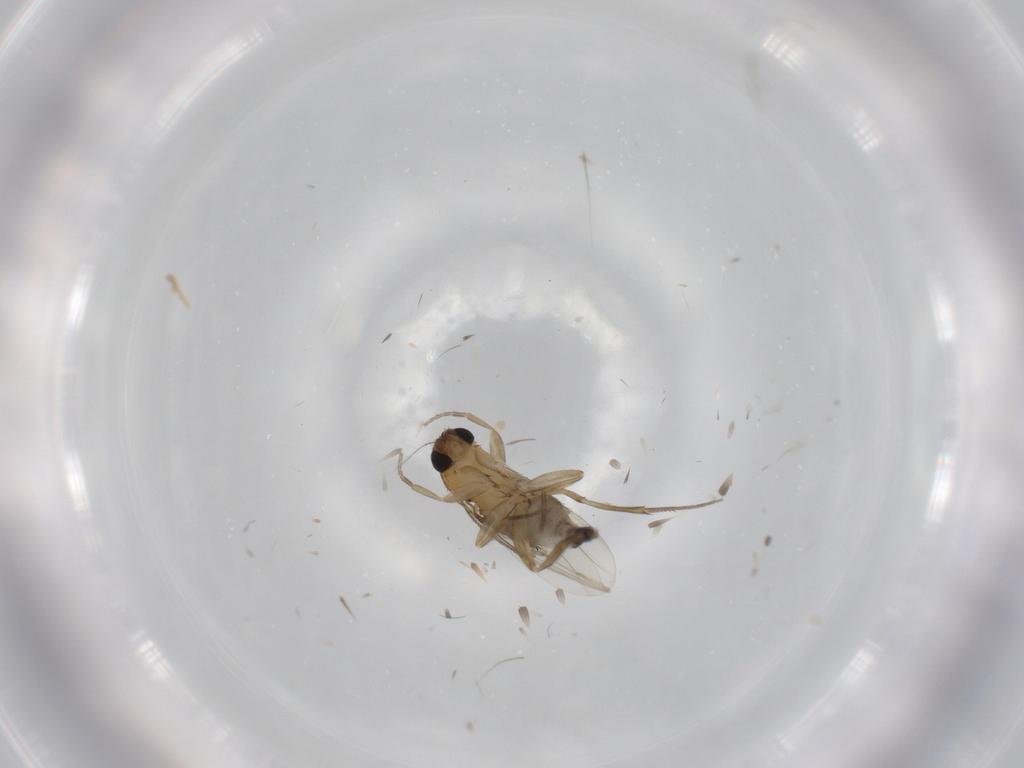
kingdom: Animalia
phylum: Arthropoda
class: Insecta
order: Diptera
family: Phoridae
